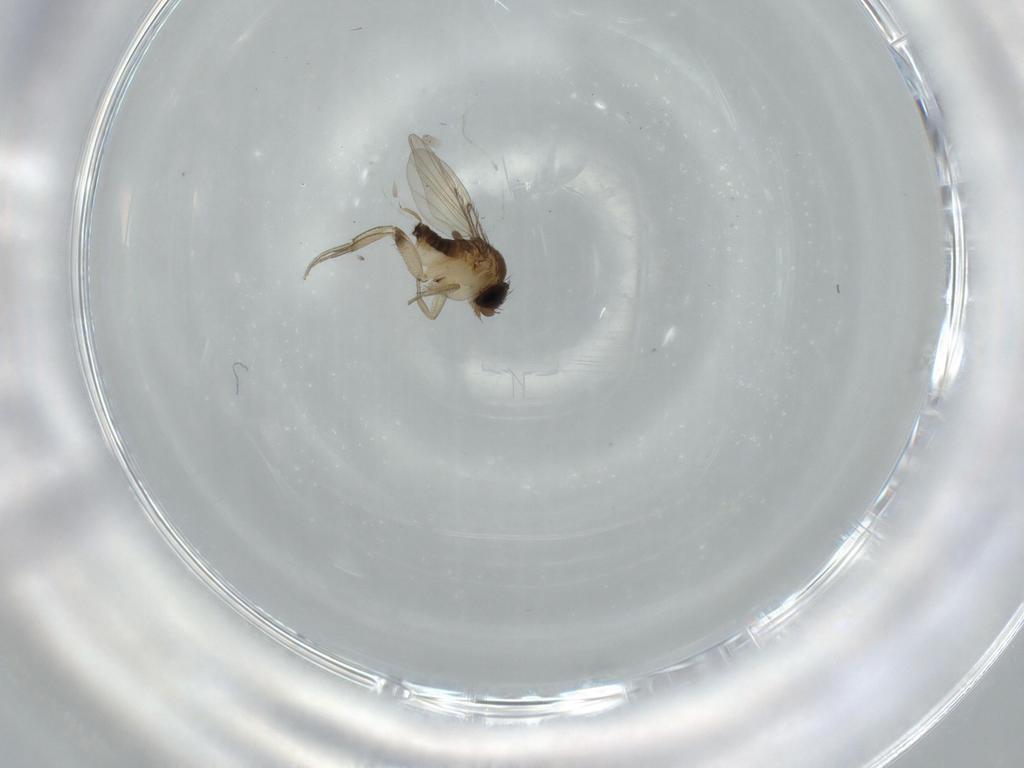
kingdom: Animalia
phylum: Arthropoda
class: Insecta
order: Diptera
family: Phoridae
